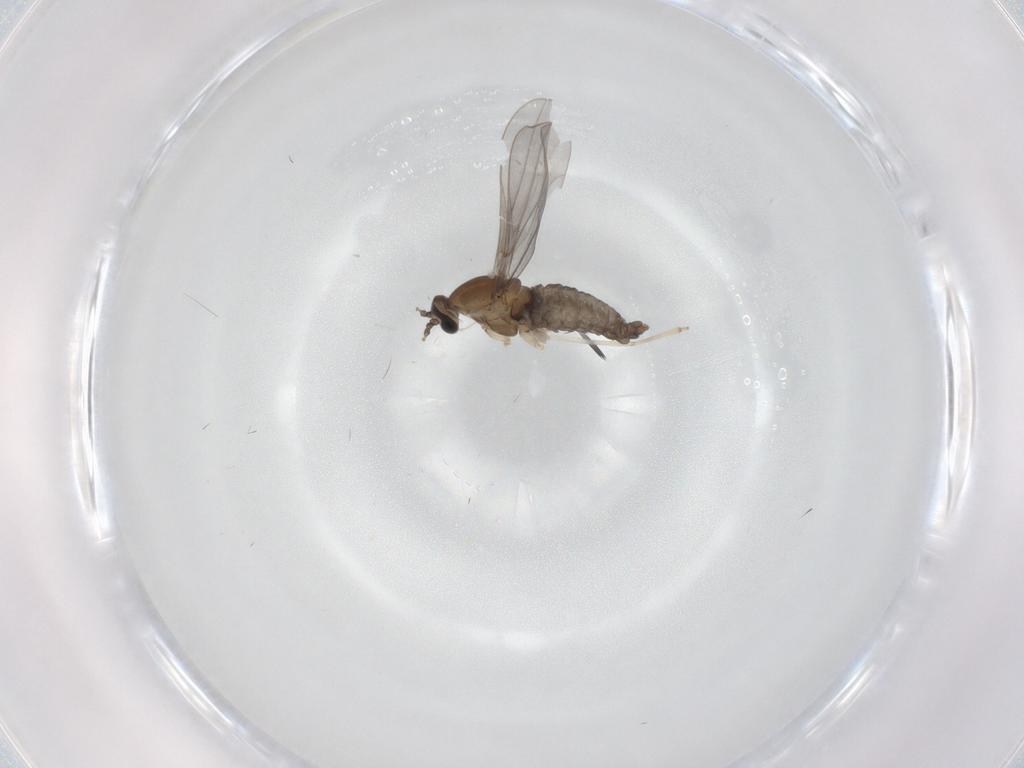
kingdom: Animalia
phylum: Arthropoda
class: Insecta
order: Diptera
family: Cecidomyiidae
